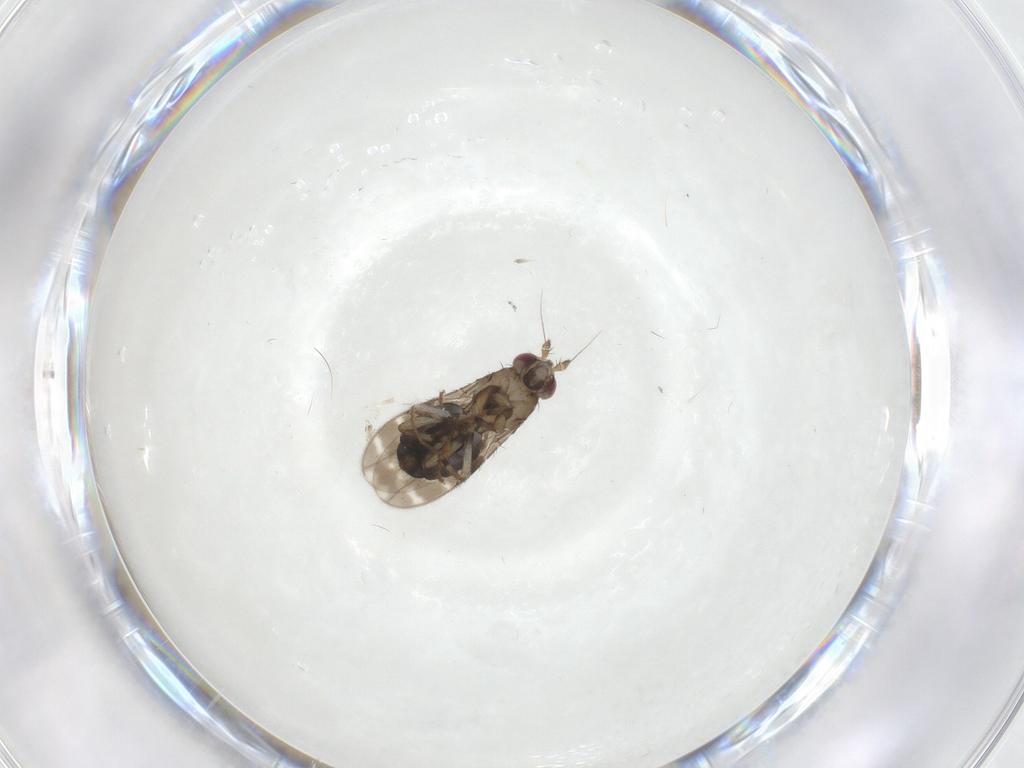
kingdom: Animalia
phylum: Arthropoda
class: Insecta
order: Diptera
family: Sphaeroceridae
